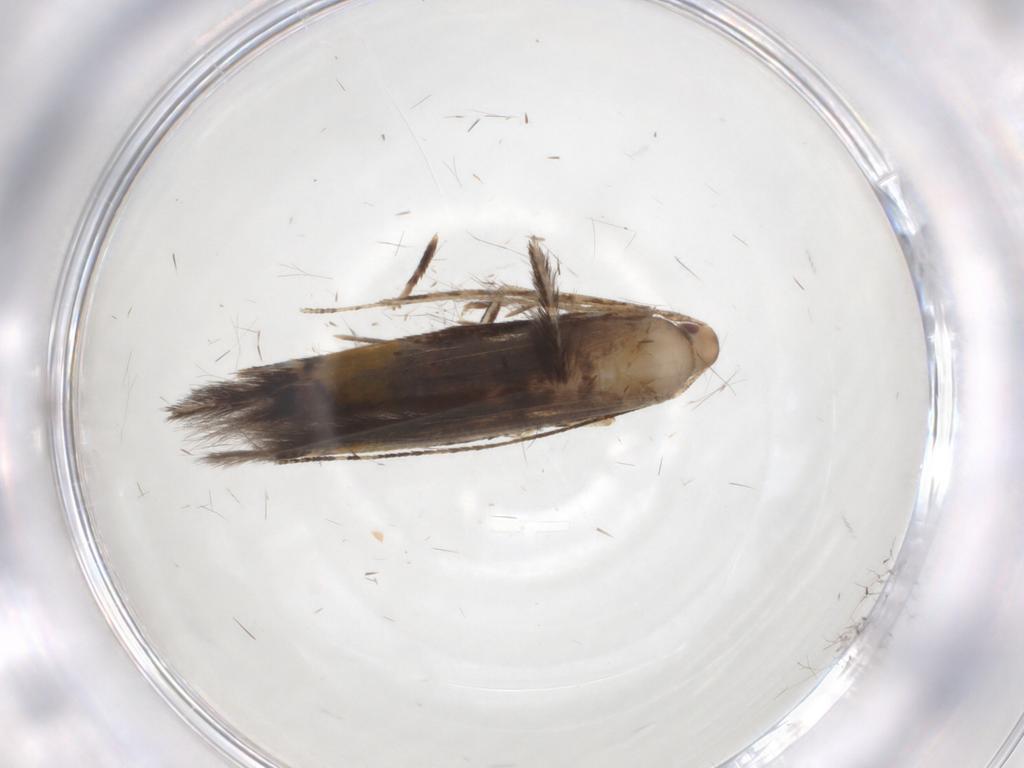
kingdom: Animalia
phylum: Arthropoda
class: Insecta
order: Lepidoptera
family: Cosmopterigidae
